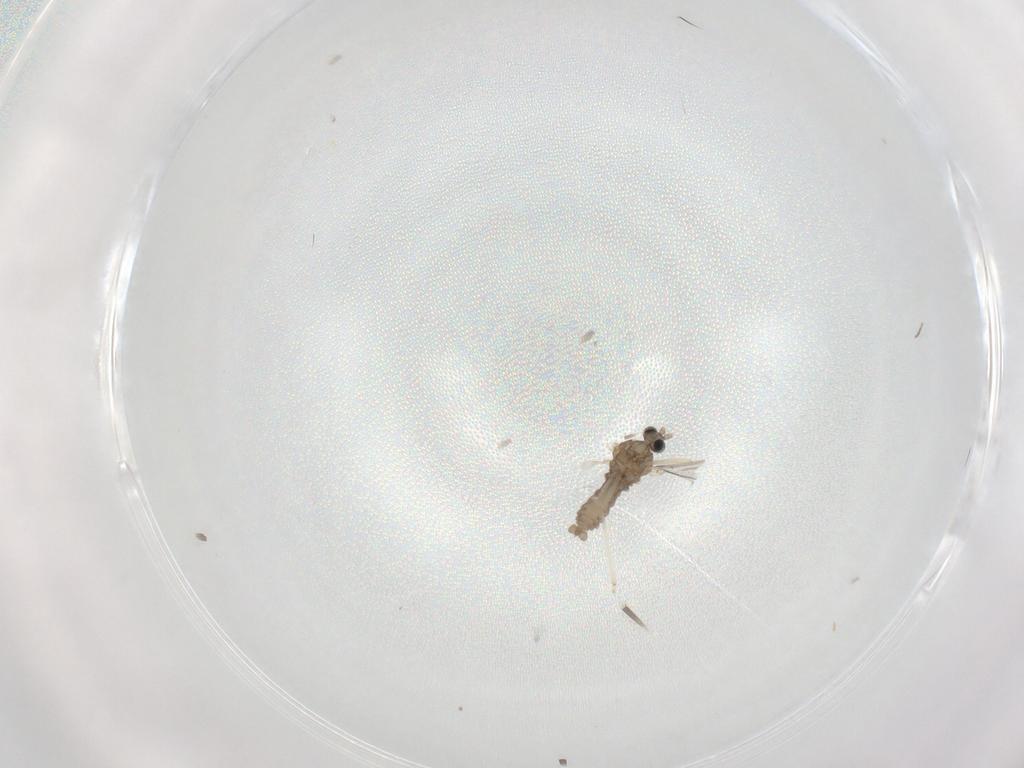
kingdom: Animalia
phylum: Arthropoda
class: Insecta
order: Diptera
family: Phoridae
